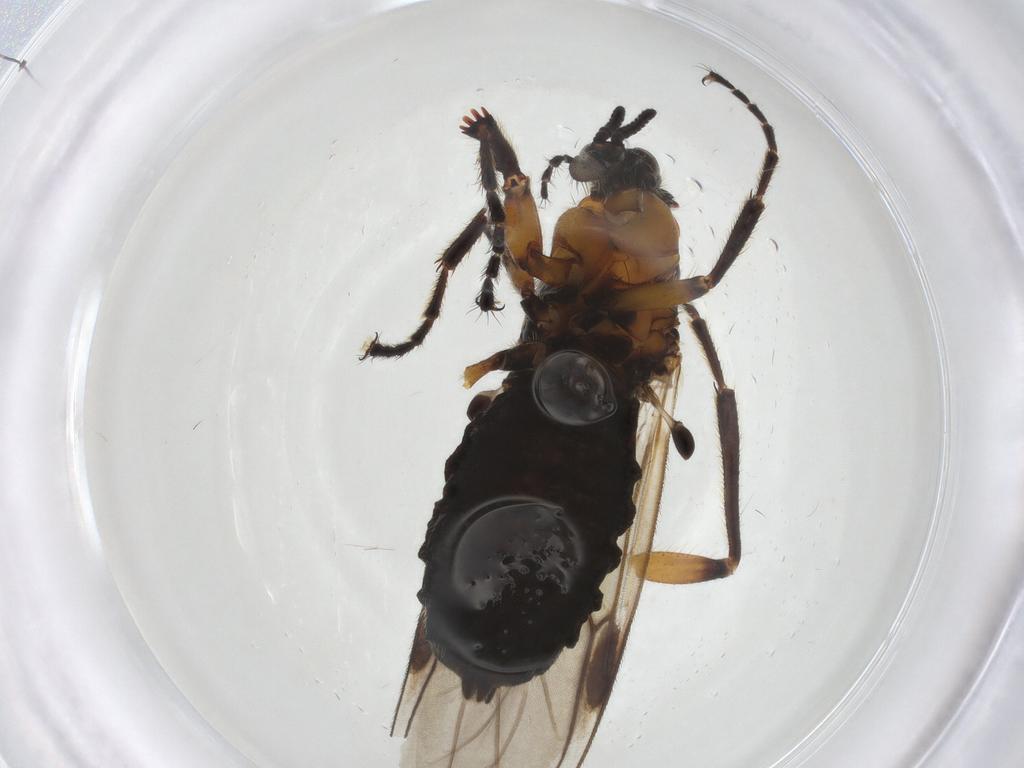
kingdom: Animalia
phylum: Arthropoda
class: Insecta
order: Diptera
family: Bibionidae
